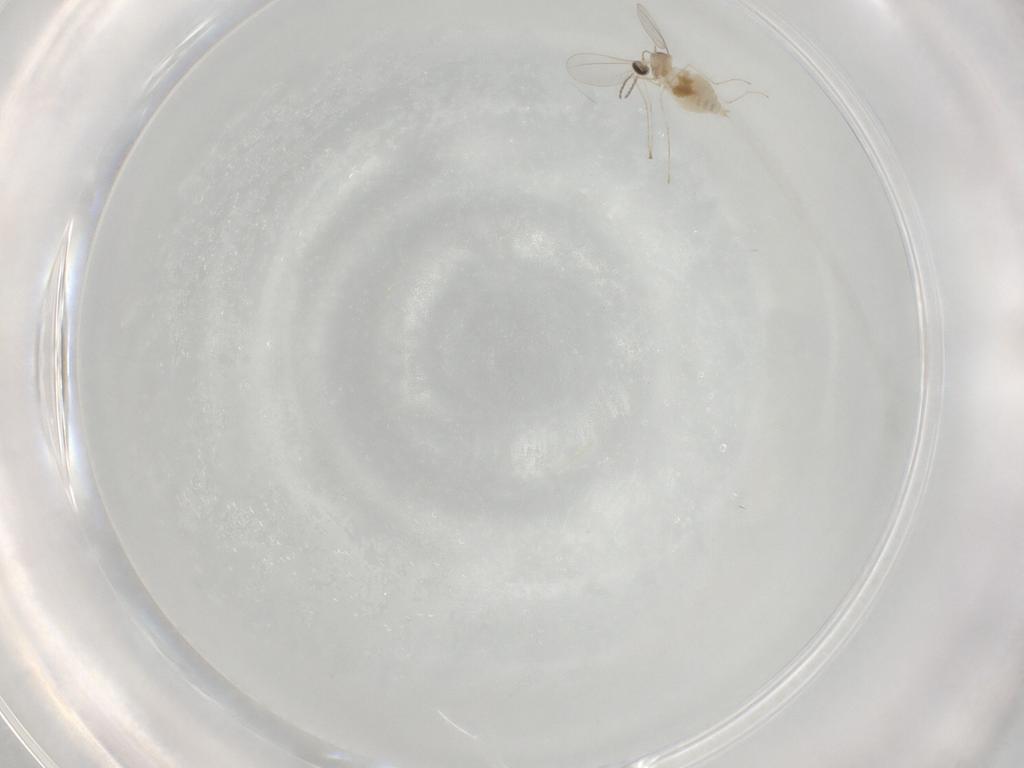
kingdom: Animalia
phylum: Arthropoda
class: Insecta
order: Diptera
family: Cecidomyiidae
